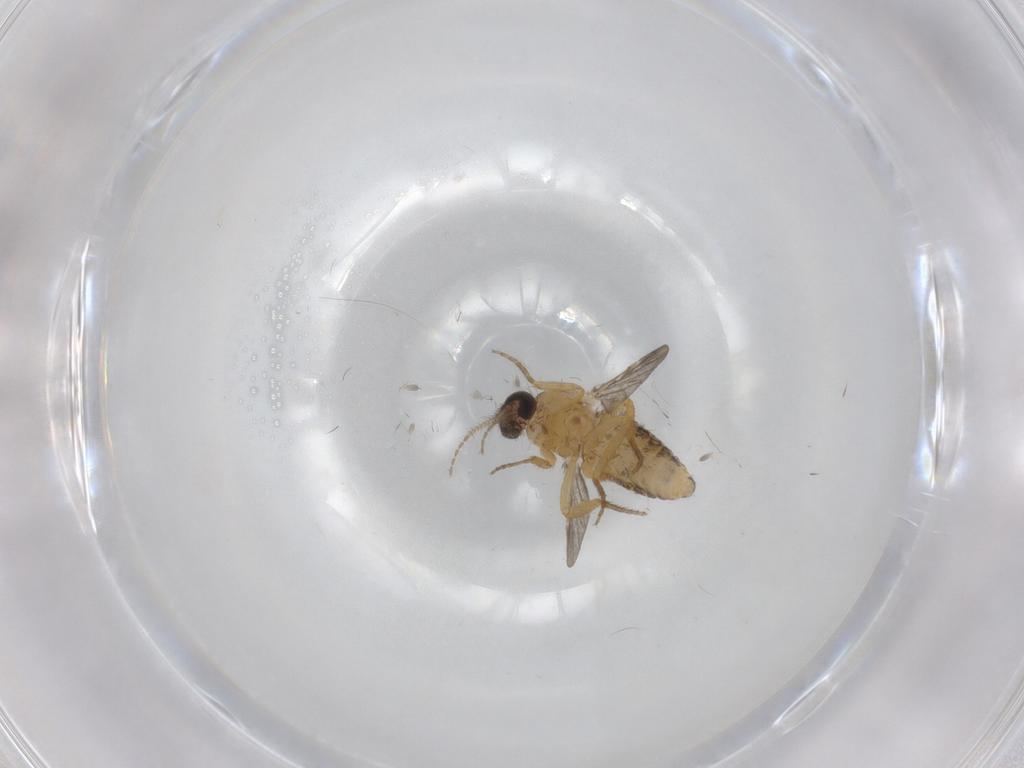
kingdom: Animalia
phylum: Arthropoda
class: Insecta
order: Diptera
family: Ceratopogonidae
